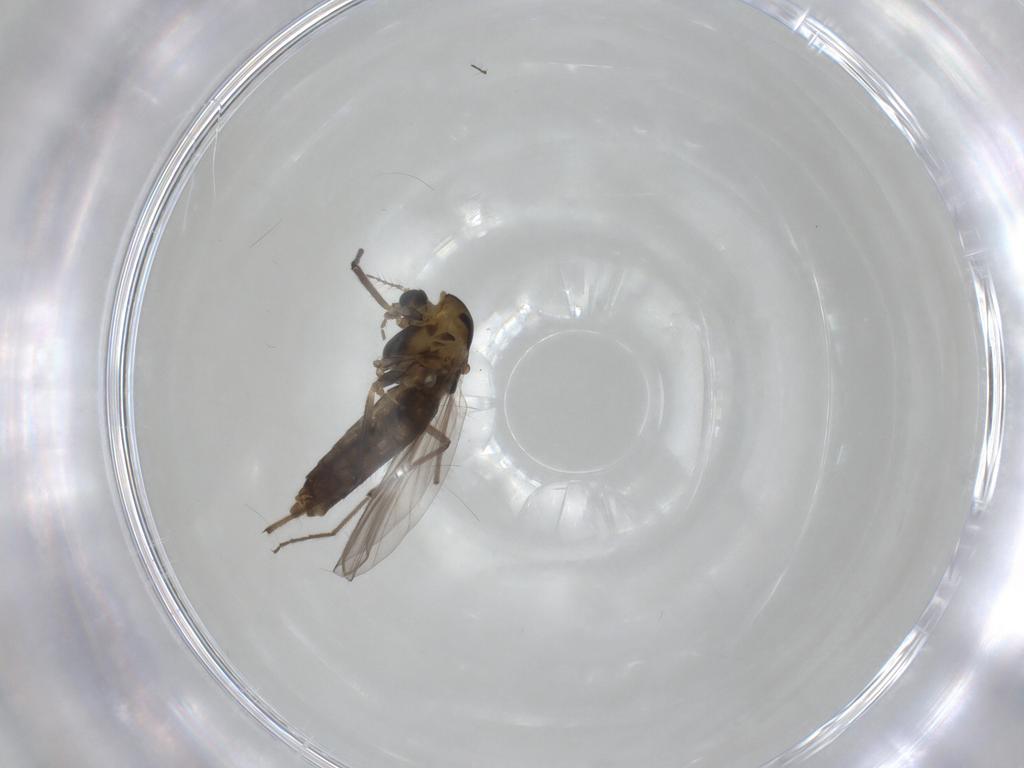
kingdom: Animalia
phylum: Arthropoda
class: Insecta
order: Diptera
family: Chironomidae
